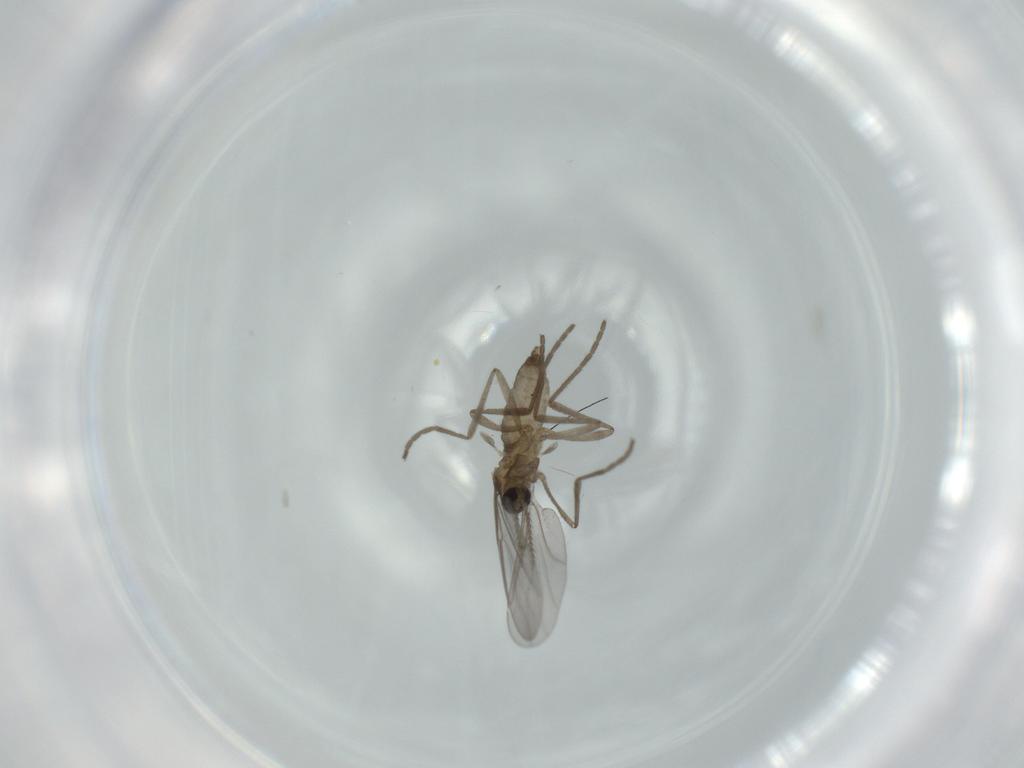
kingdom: Animalia
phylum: Arthropoda
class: Insecta
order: Diptera
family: Cecidomyiidae
